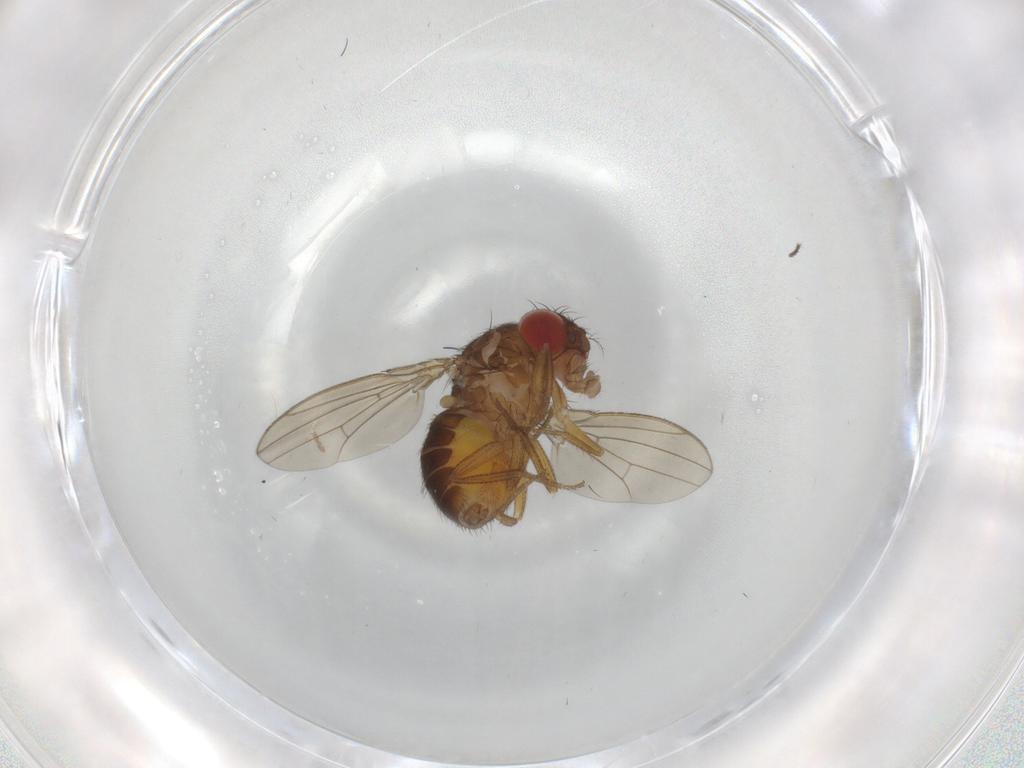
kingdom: Animalia
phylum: Arthropoda
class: Insecta
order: Diptera
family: Drosophilidae
